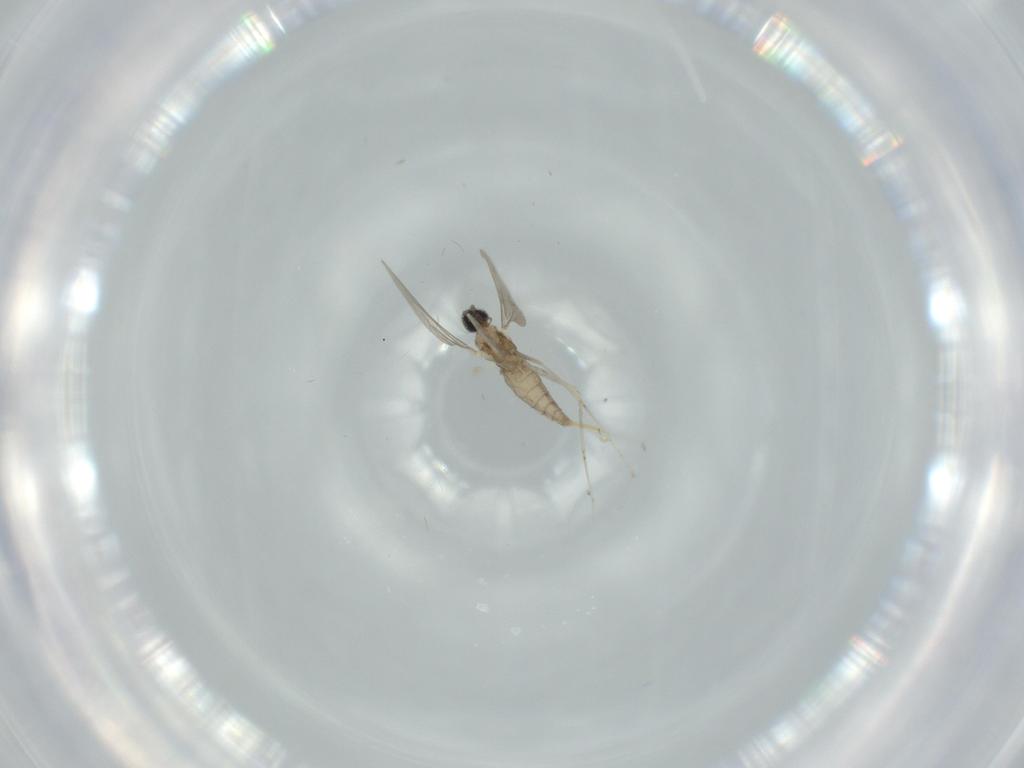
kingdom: Animalia
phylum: Arthropoda
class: Insecta
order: Diptera
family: Cecidomyiidae
